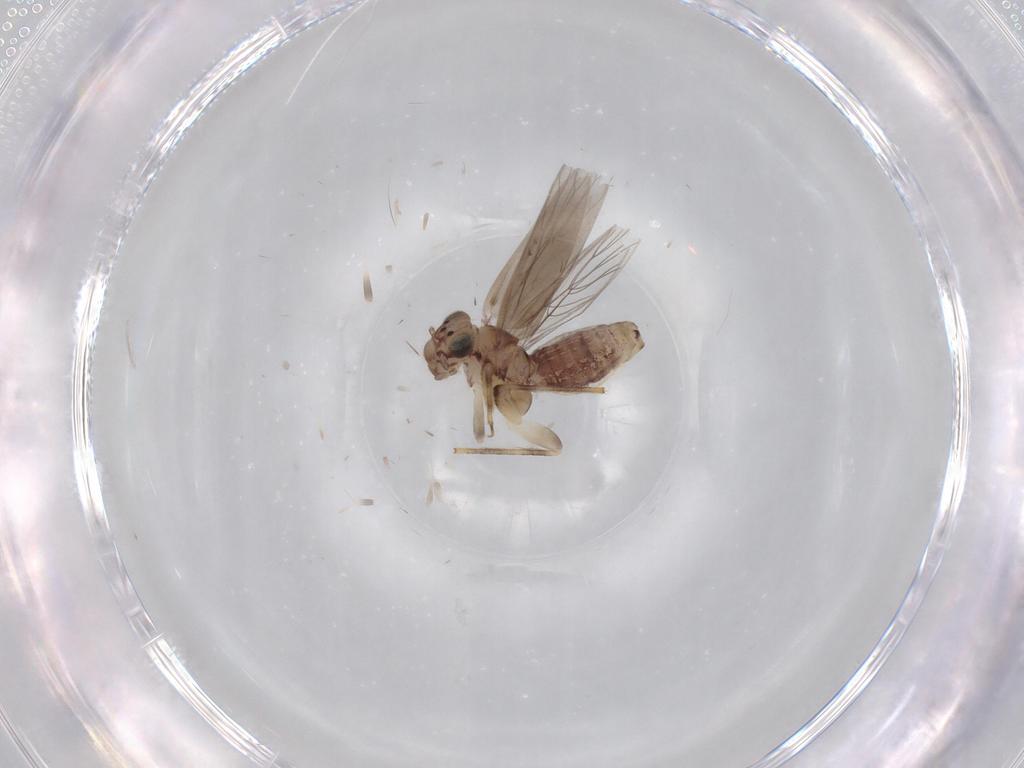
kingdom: Animalia
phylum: Arthropoda
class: Insecta
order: Psocodea
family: Lepidopsocidae
